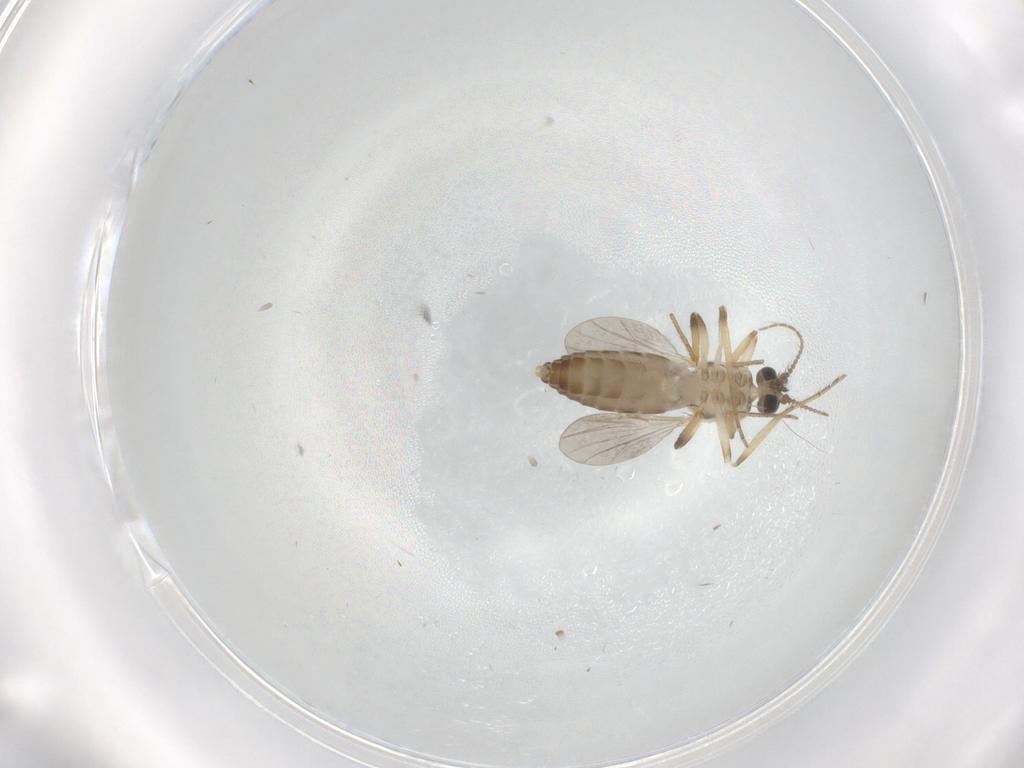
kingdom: Animalia
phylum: Arthropoda
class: Insecta
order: Diptera
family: Ceratopogonidae
